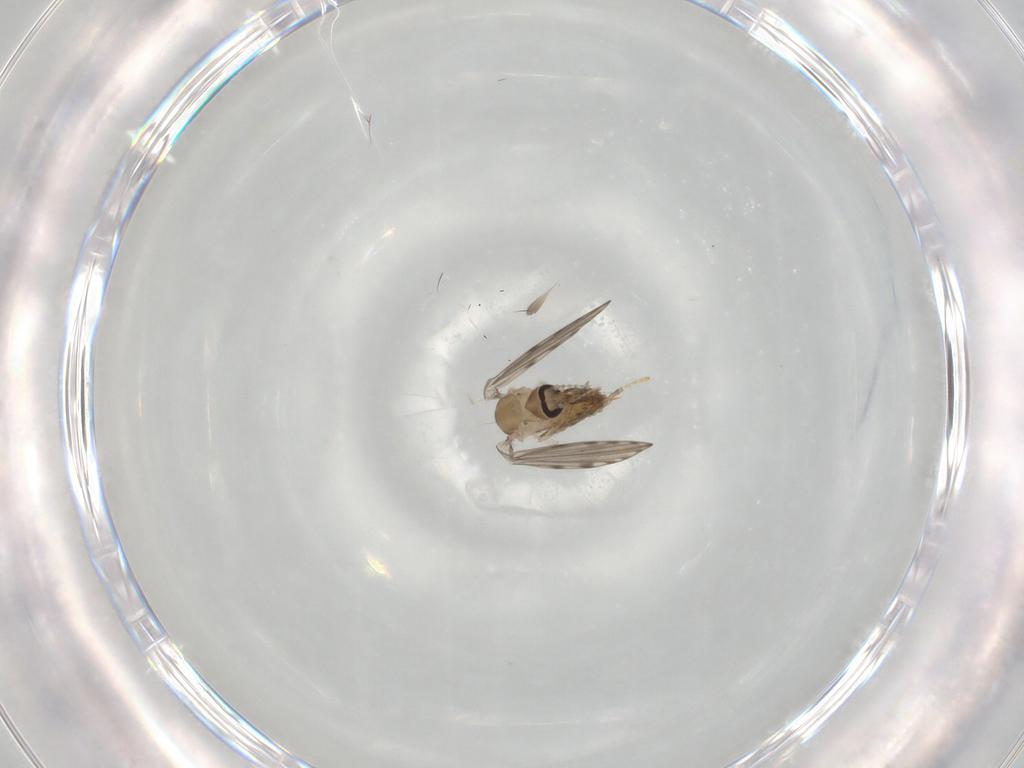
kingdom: Animalia
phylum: Arthropoda
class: Insecta
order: Diptera
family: Psychodidae
